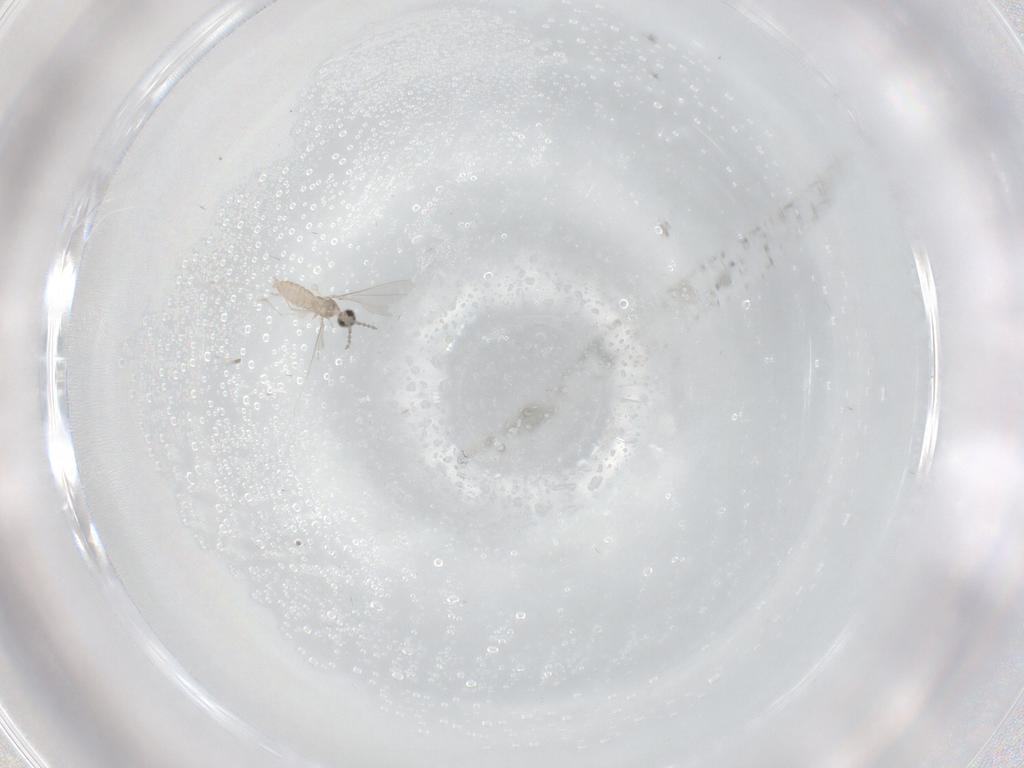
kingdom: Animalia
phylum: Arthropoda
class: Insecta
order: Diptera
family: Cecidomyiidae
